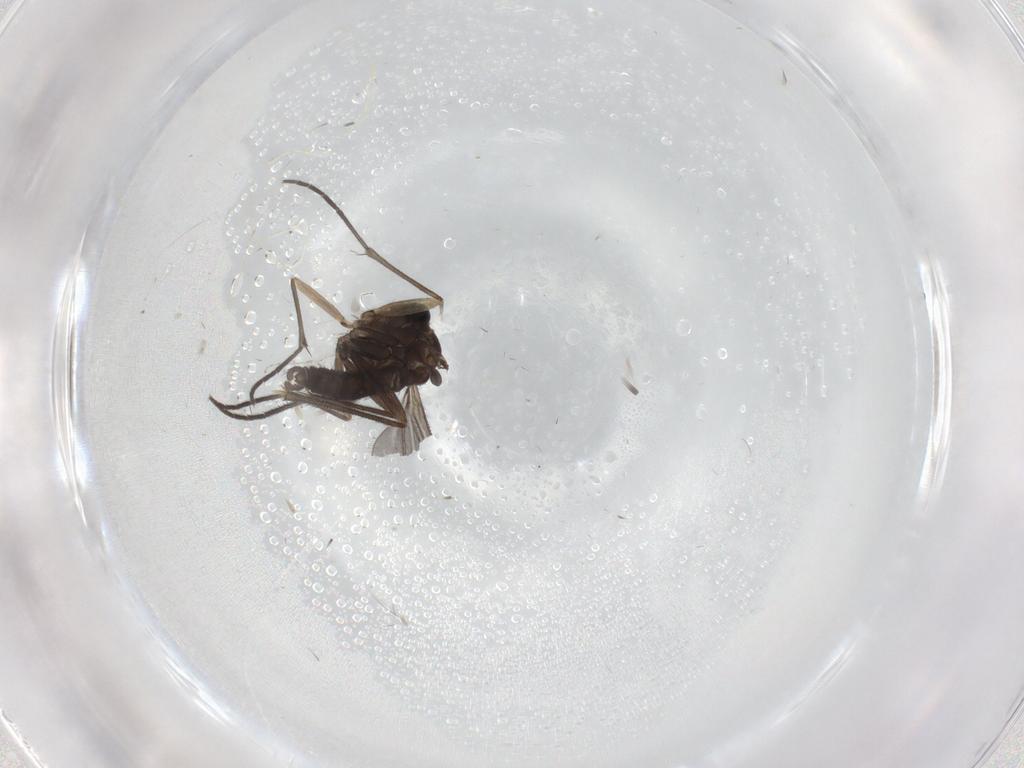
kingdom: Animalia
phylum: Arthropoda
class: Insecta
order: Diptera
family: Sciaridae
